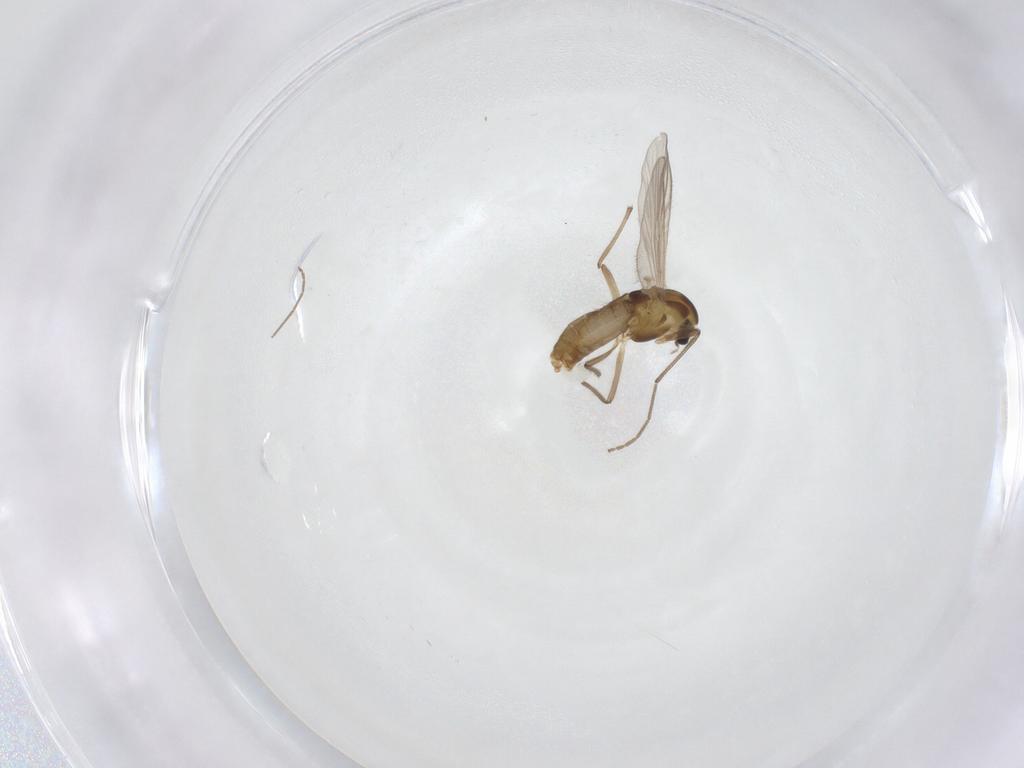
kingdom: Animalia
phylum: Arthropoda
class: Insecta
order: Diptera
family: Chironomidae
